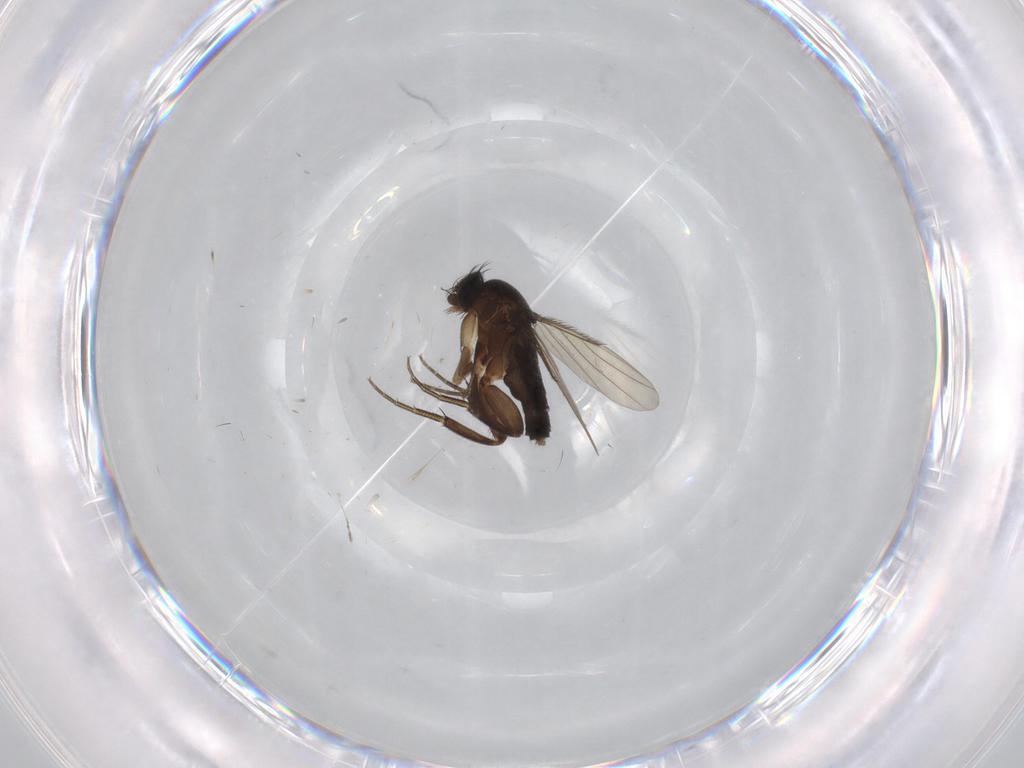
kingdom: Animalia
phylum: Arthropoda
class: Insecta
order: Diptera
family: Phoridae
